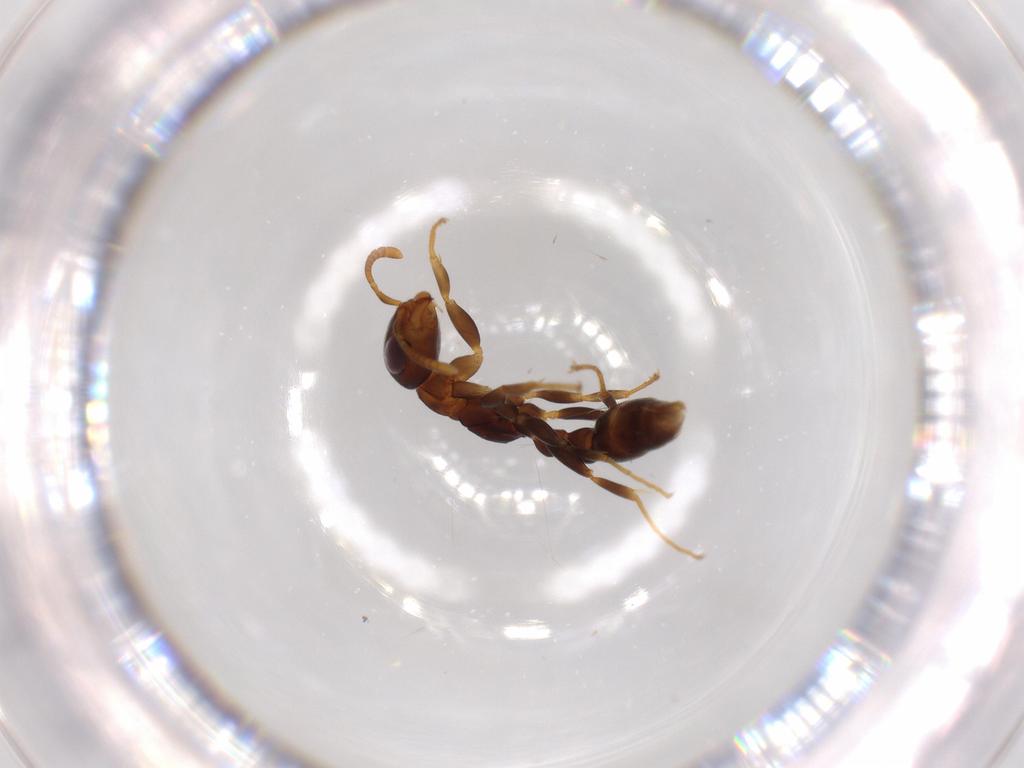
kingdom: Animalia
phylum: Arthropoda
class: Insecta
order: Hymenoptera
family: Formicidae
